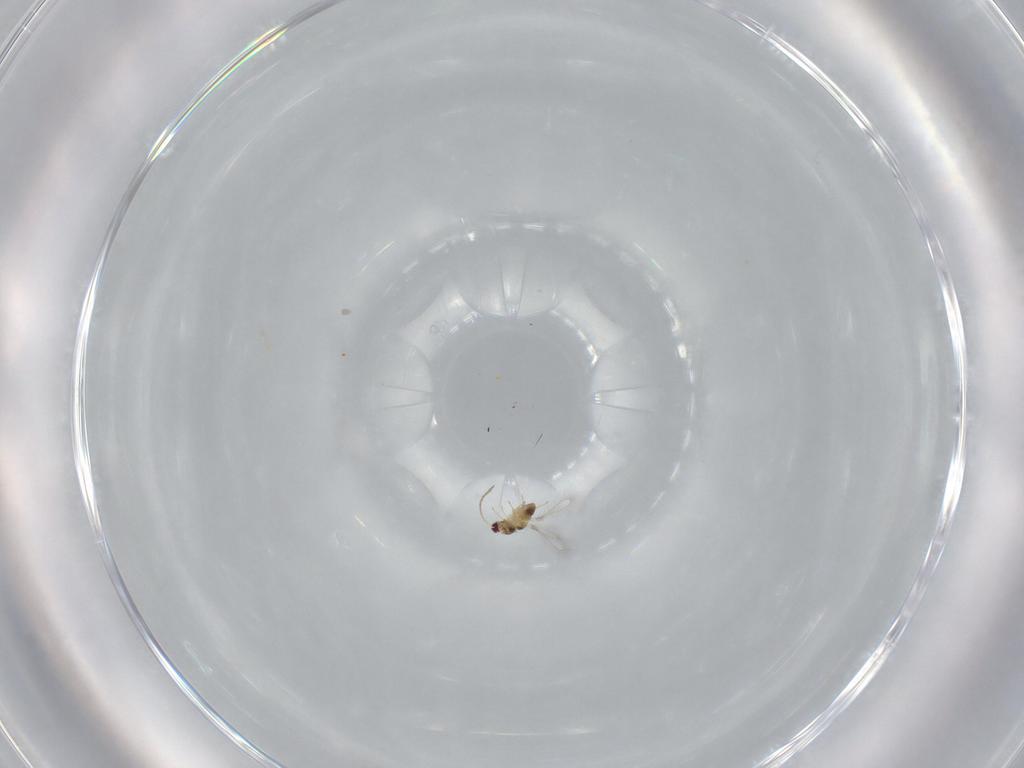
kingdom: Animalia
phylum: Arthropoda
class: Insecta
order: Hymenoptera
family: Mymaridae
